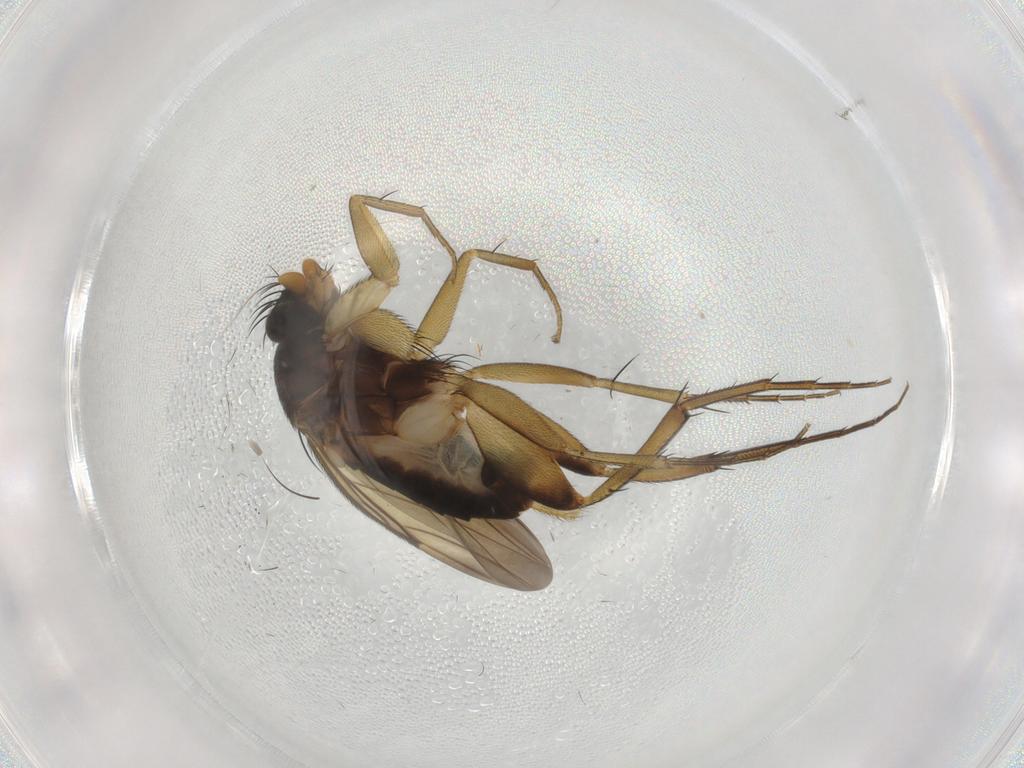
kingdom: Animalia
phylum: Arthropoda
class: Insecta
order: Diptera
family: Phoridae
